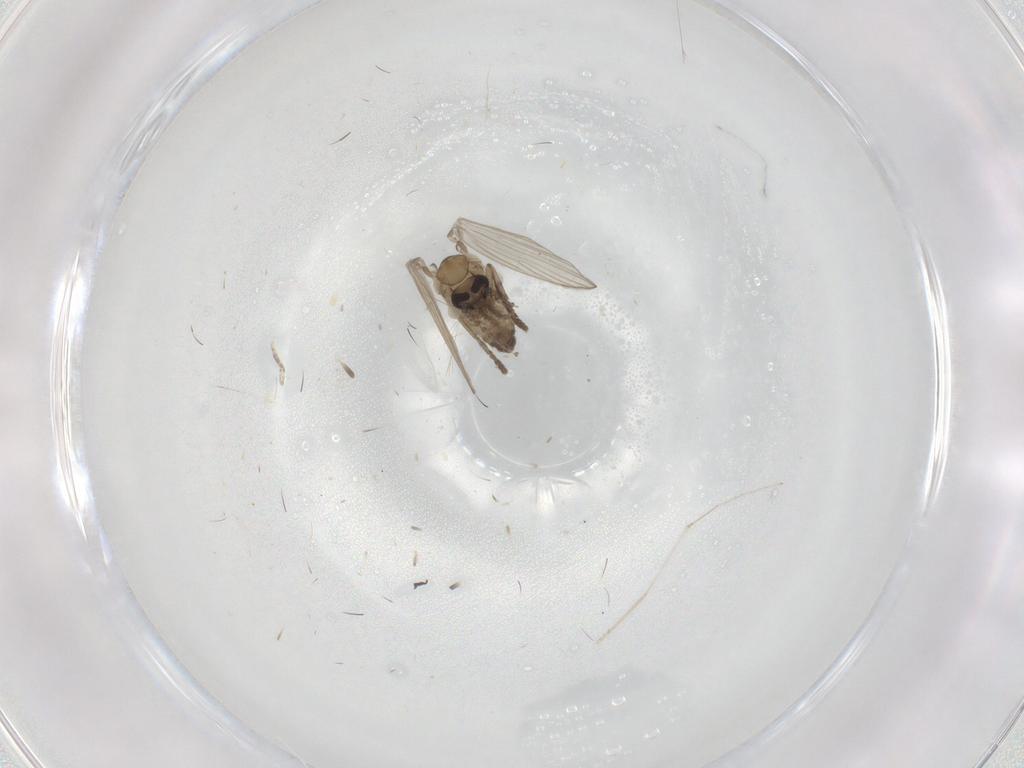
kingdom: Animalia
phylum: Arthropoda
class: Insecta
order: Diptera
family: Psychodidae
